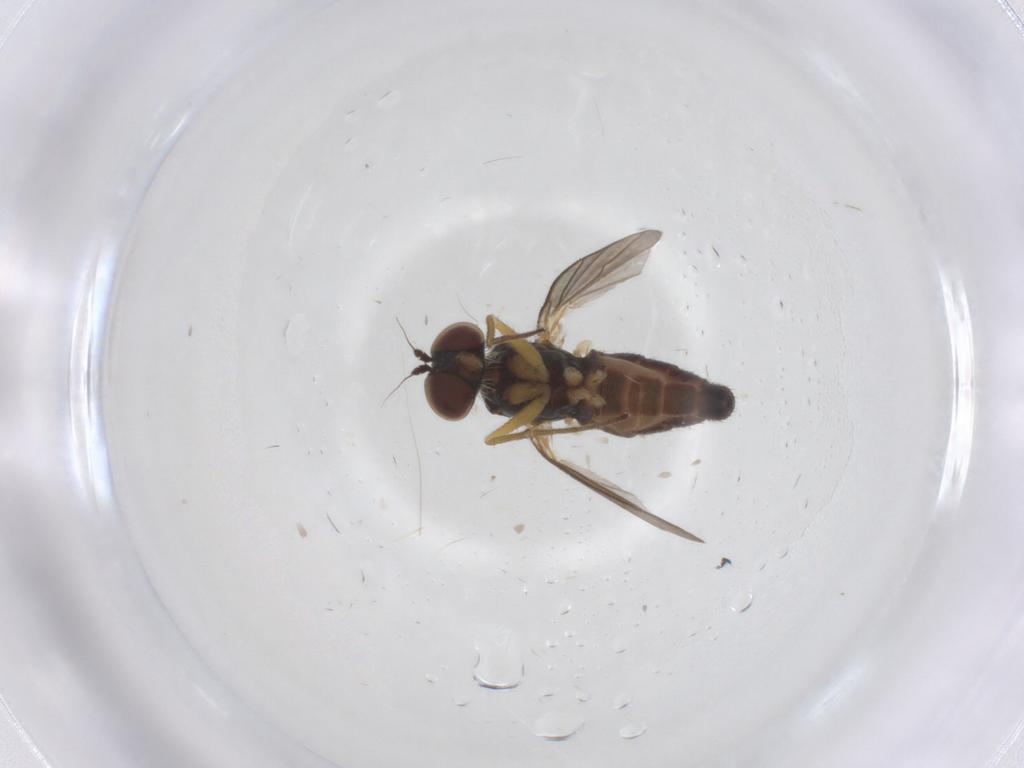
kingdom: Animalia
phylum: Arthropoda
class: Insecta
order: Diptera
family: Dolichopodidae
